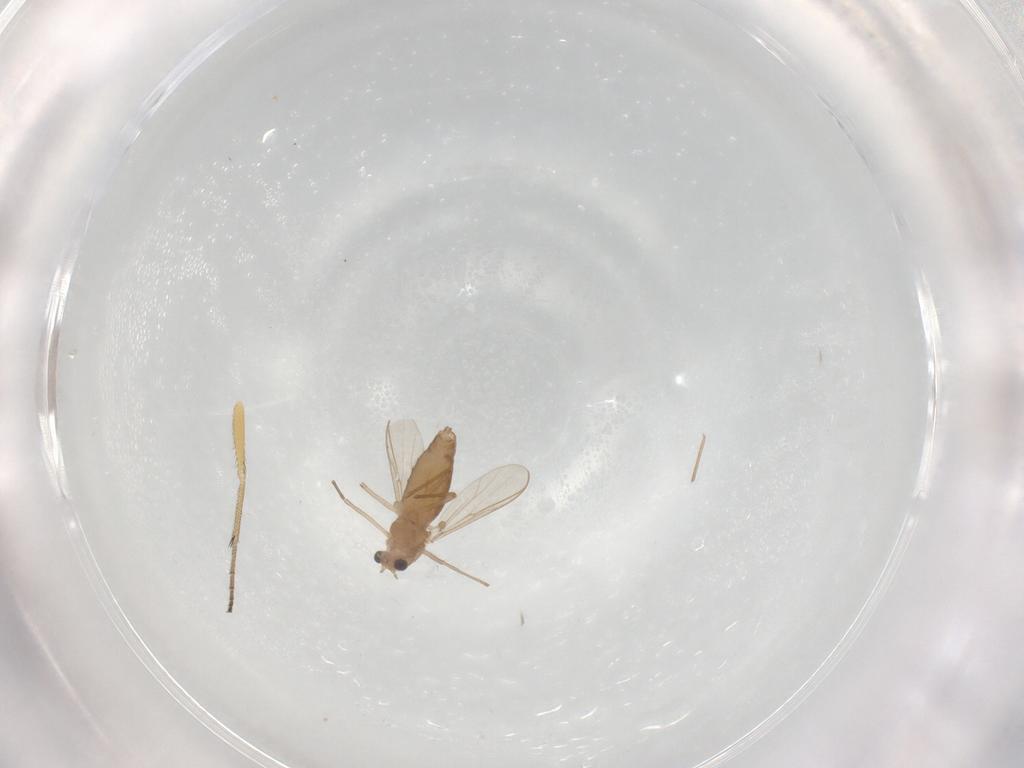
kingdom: Animalia
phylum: Arthropoda
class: Insecta
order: Diptera
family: Chironomidae
